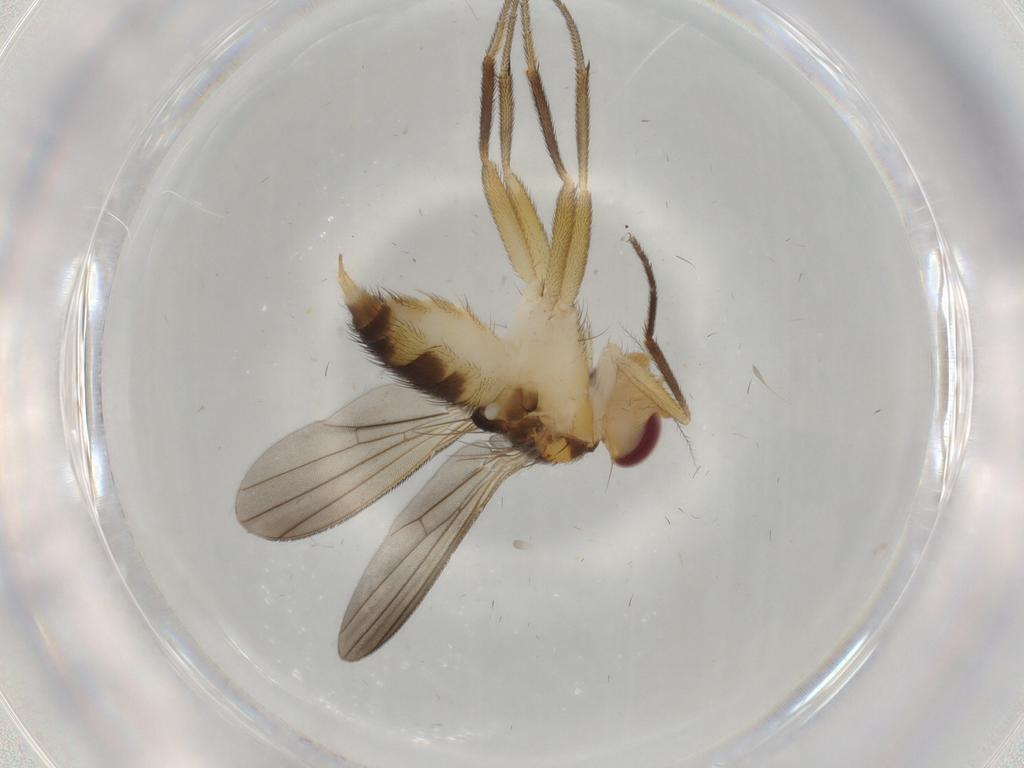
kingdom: Animalia
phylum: Arthropoda
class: Insecta
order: Diptera
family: Clusiidae
